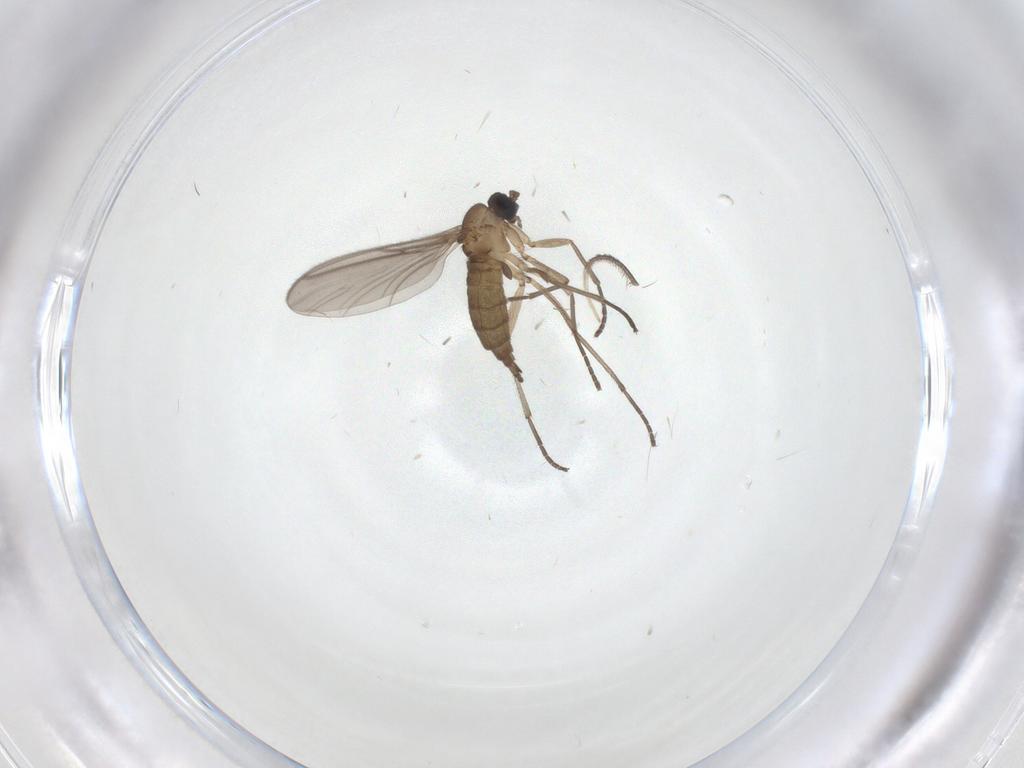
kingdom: Animalia
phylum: Arthropoda
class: Insecta
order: Diptera
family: Sciaridae
